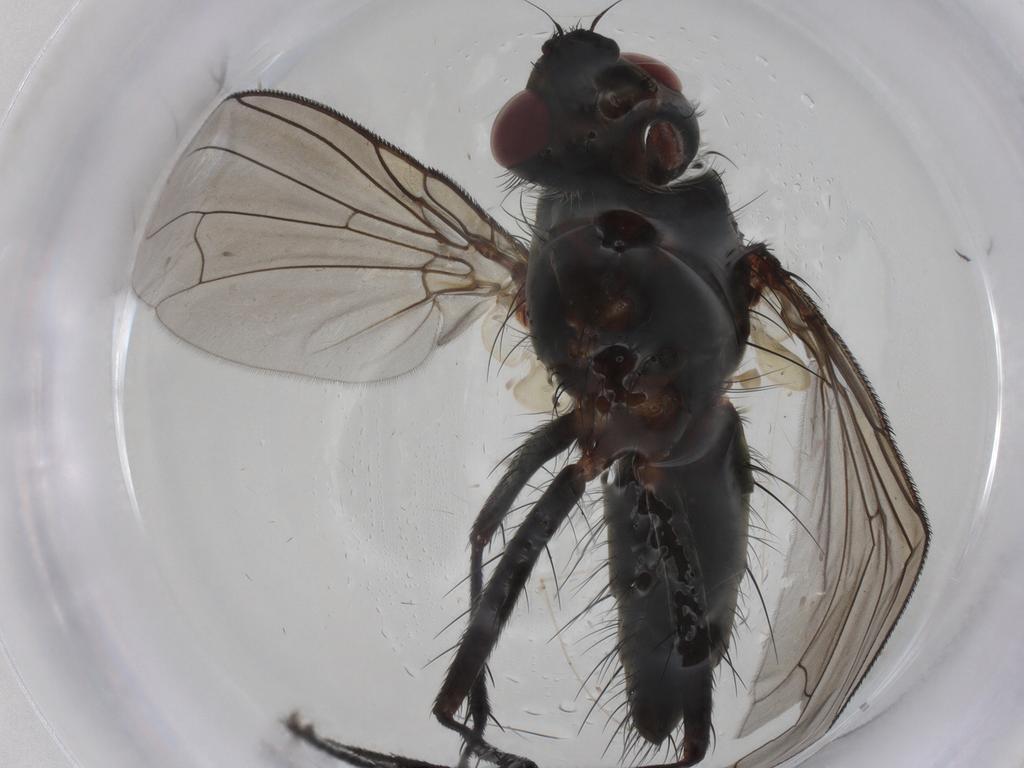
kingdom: Animalia
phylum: Arthropoda
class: Insecta
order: Diptera
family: Tachinidae
